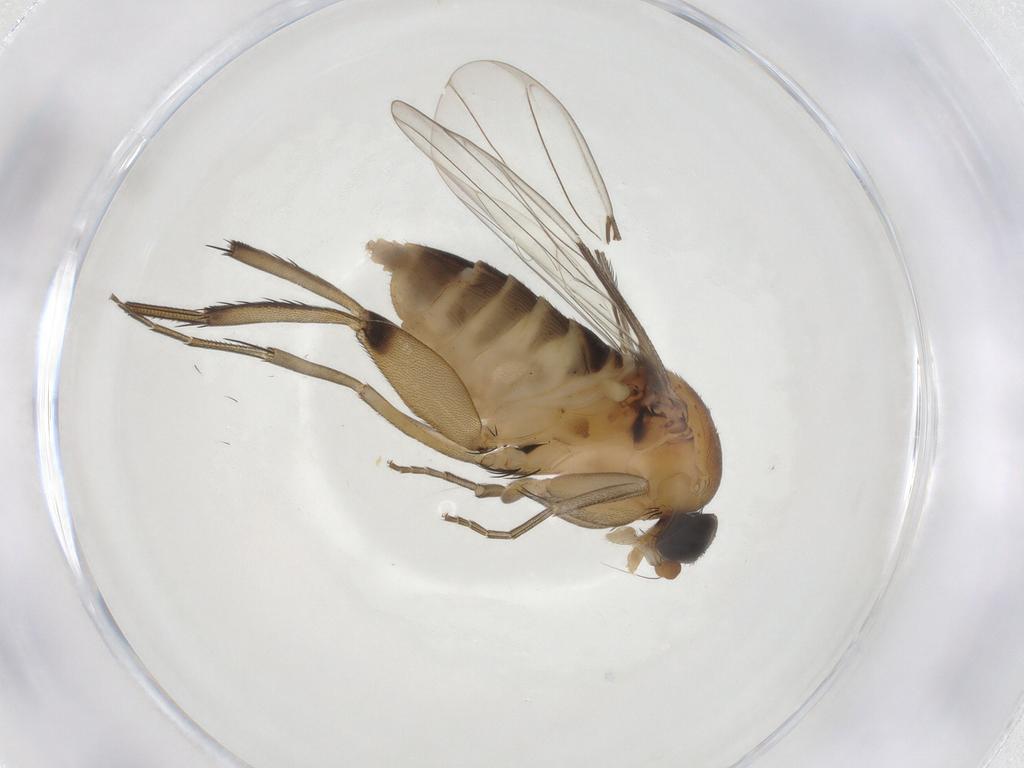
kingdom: Animalia
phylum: Arthropoda
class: Insecta
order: Diptera
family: Phoridae
